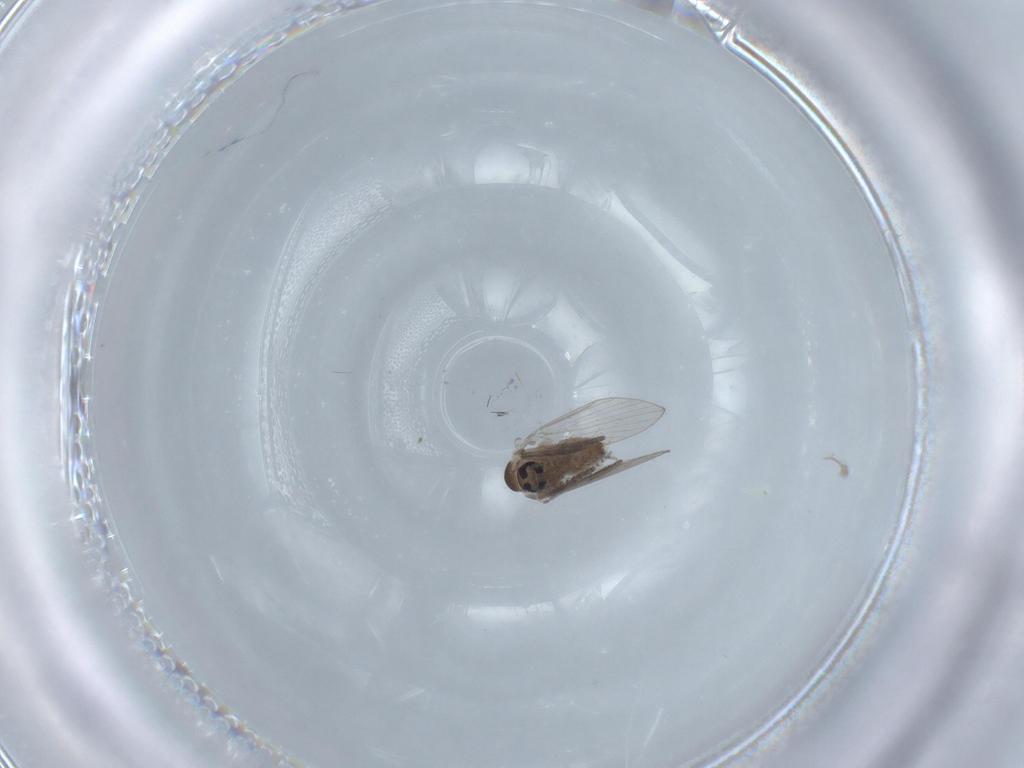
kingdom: Animalia
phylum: Arthropoda
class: Insecta
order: Diptera
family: Psychodidae
